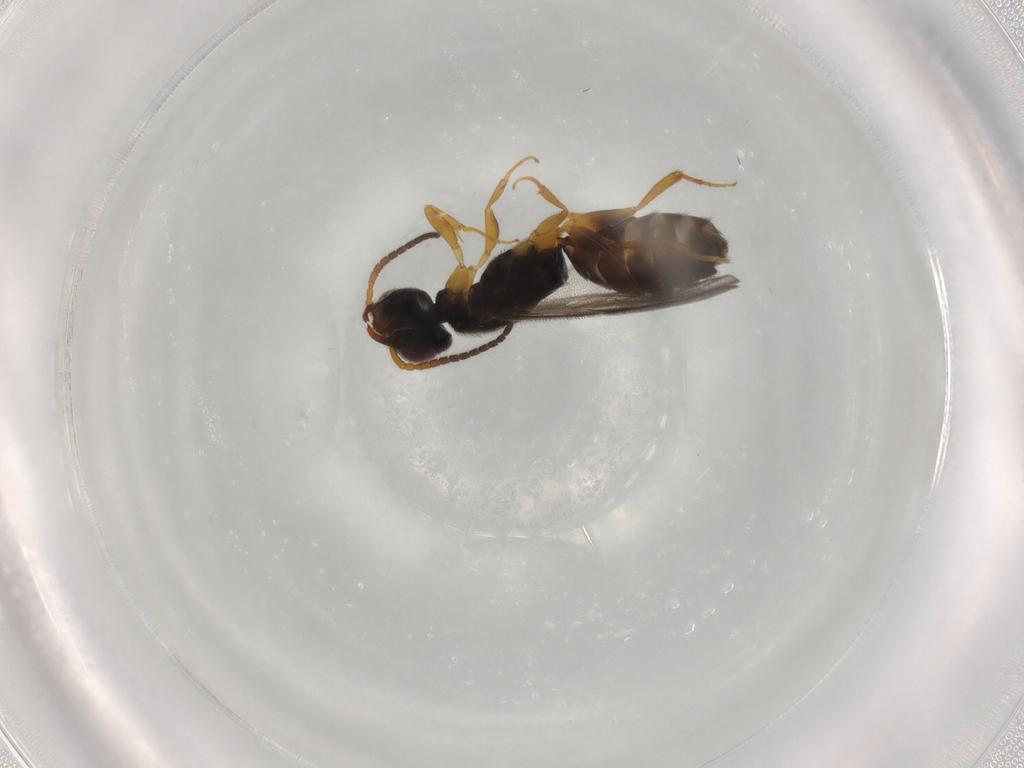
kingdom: Animalia
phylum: Arthropoda
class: Insecta
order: Hymenoptera
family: Bethylidae
